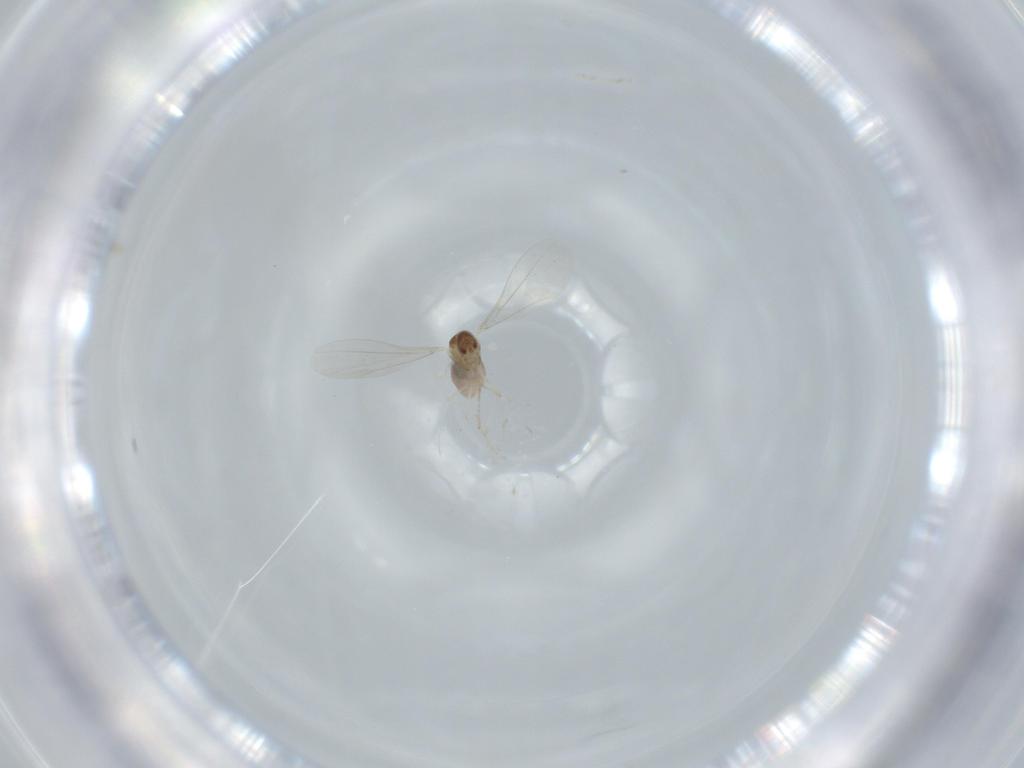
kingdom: Animalia
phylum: Arthropoda
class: Insecta
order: Diptera
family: Cecidomyiidae
